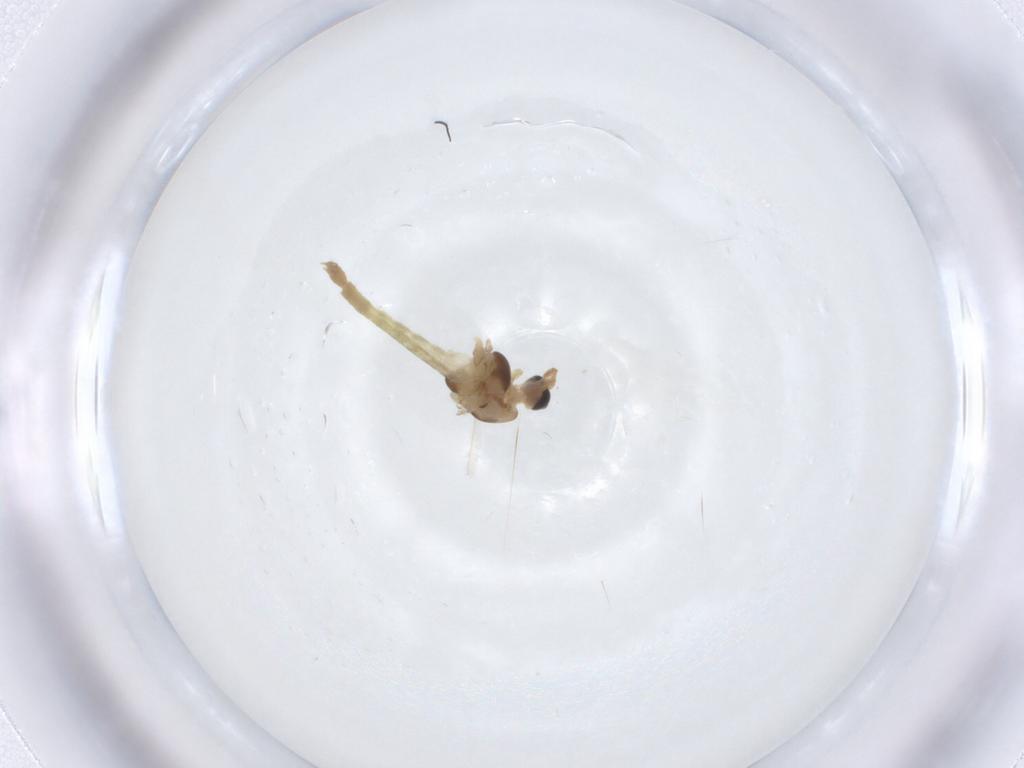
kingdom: Animalia
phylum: Arthropoda
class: Insecta
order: Diptera
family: Chironomidae
